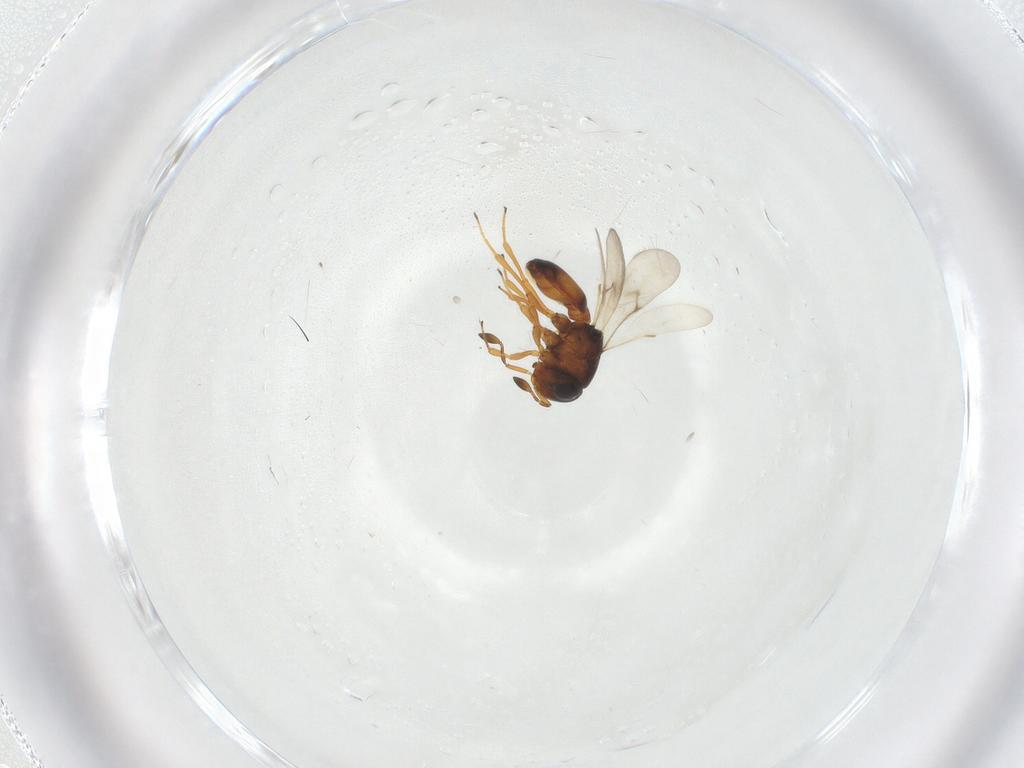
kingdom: Animalia
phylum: Arthropoda
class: Arachnida
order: Araneae
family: Pholcidae
